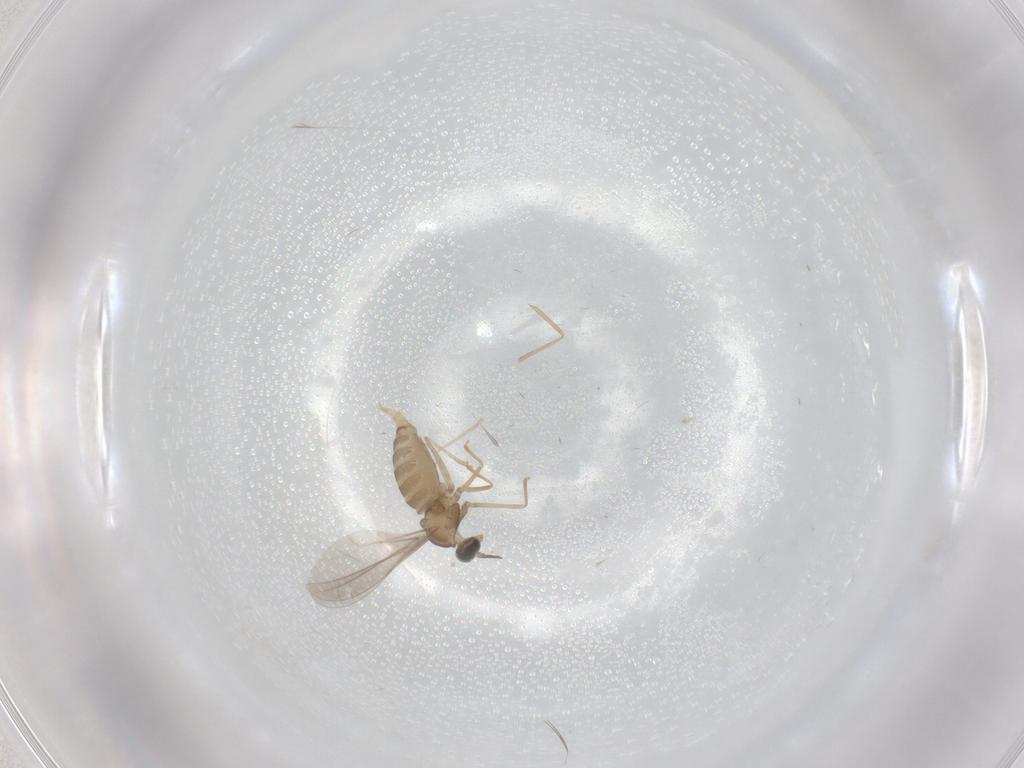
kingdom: Animalia
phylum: Arthropoda
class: Insecta
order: Diptera
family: Cecidomyiidae
